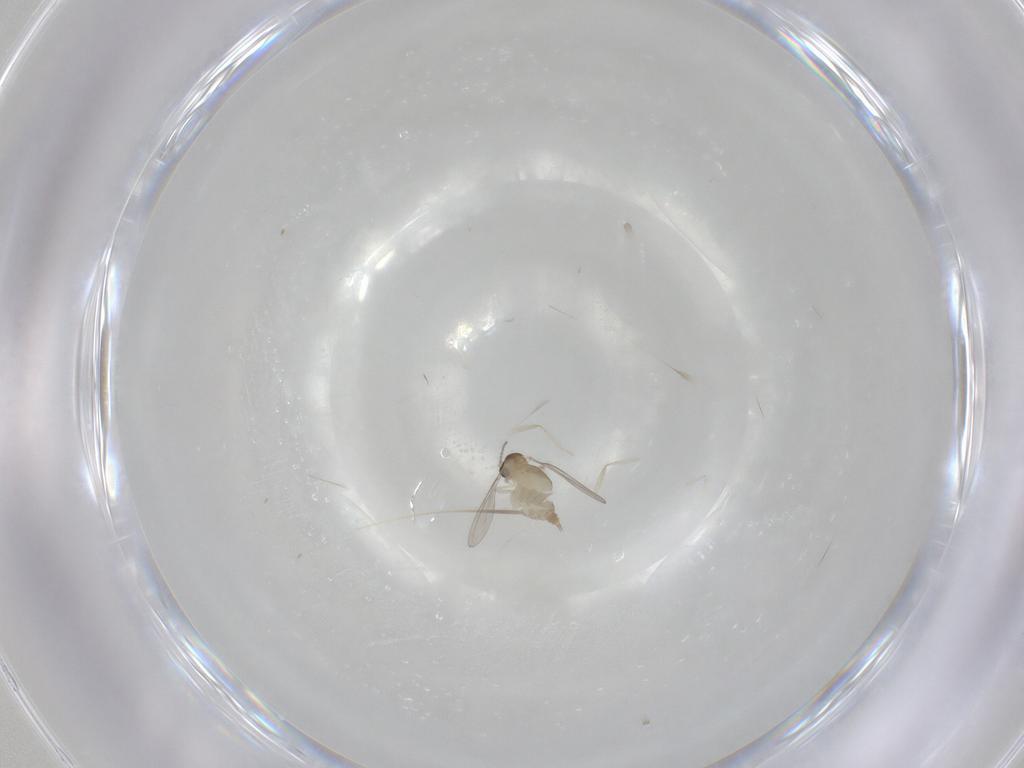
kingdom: Animalia
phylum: Arthropoda
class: Insecta
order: Diptera
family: Cecidomyiidae
